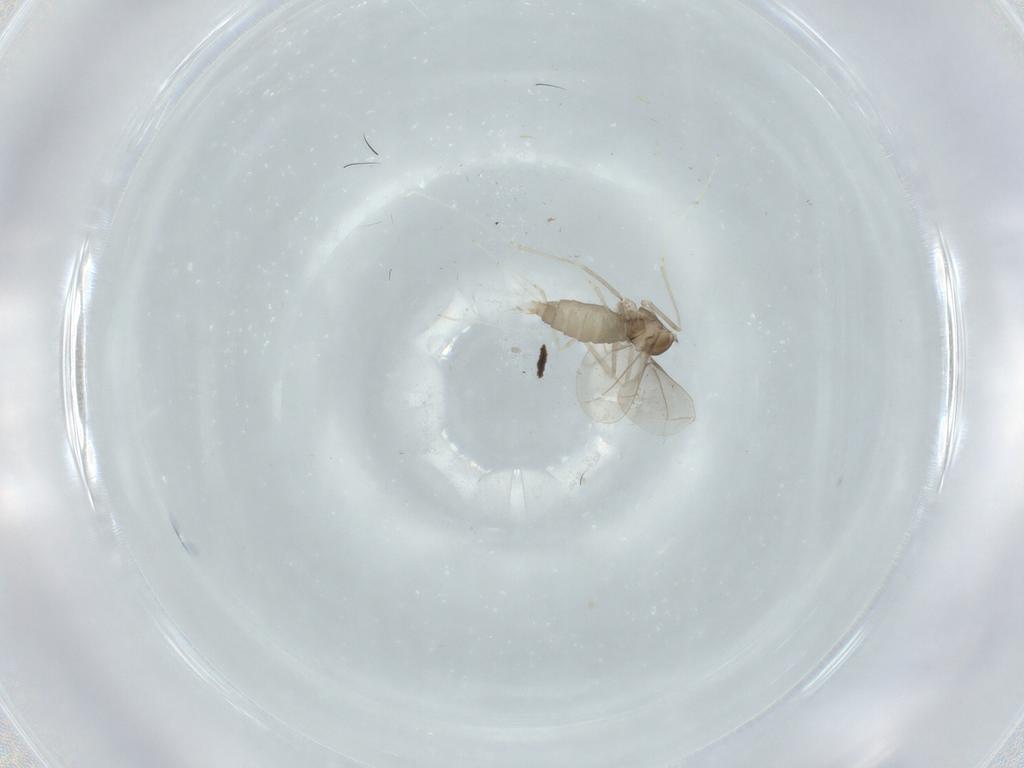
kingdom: Animalia
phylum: Arthropoda
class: Insecta
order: Diptera
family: Cecidomyiidae
